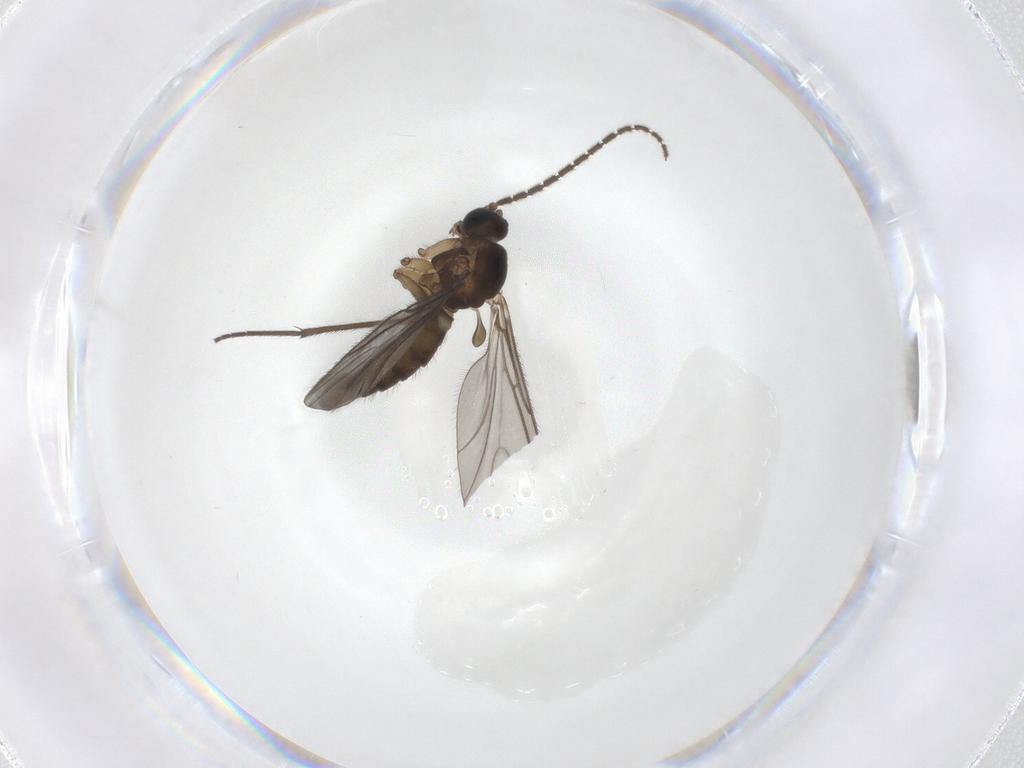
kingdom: Animalia
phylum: Arthropoda
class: Insecta
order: Diptera
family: Sciaridae
